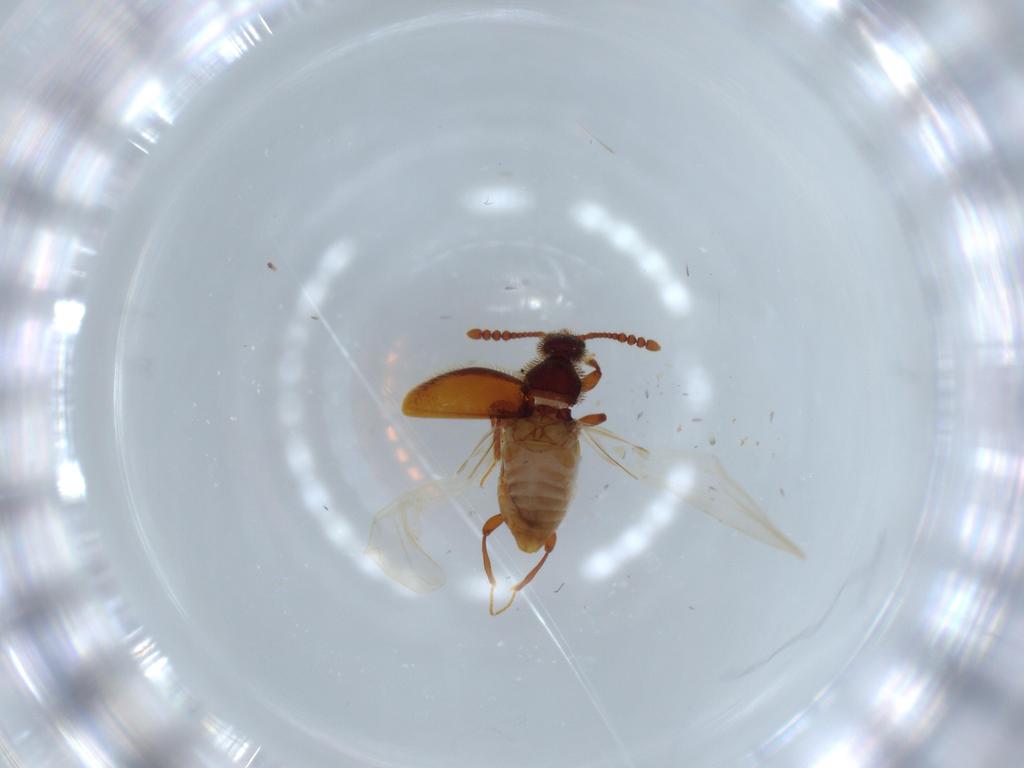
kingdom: Animalia
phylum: Arthropoda
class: Insecta
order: Coleoptera
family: Staphylinidae
